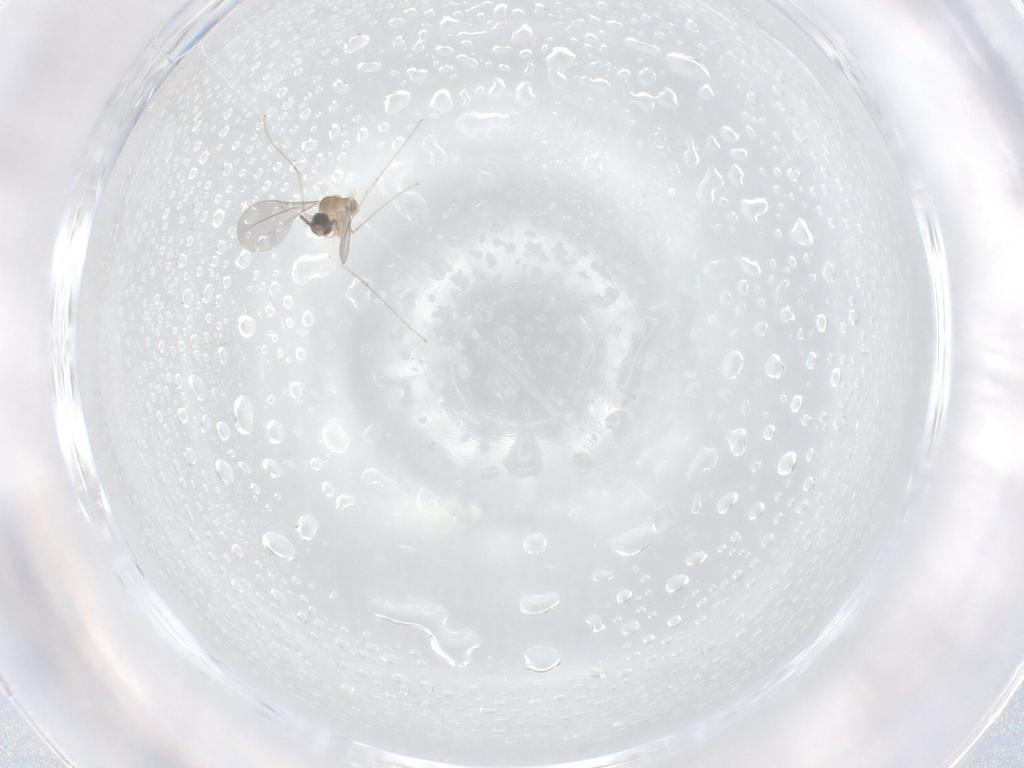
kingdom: Animalia
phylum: Arthropoda
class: Insecta
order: Diptera
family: Cecidomyiidae
